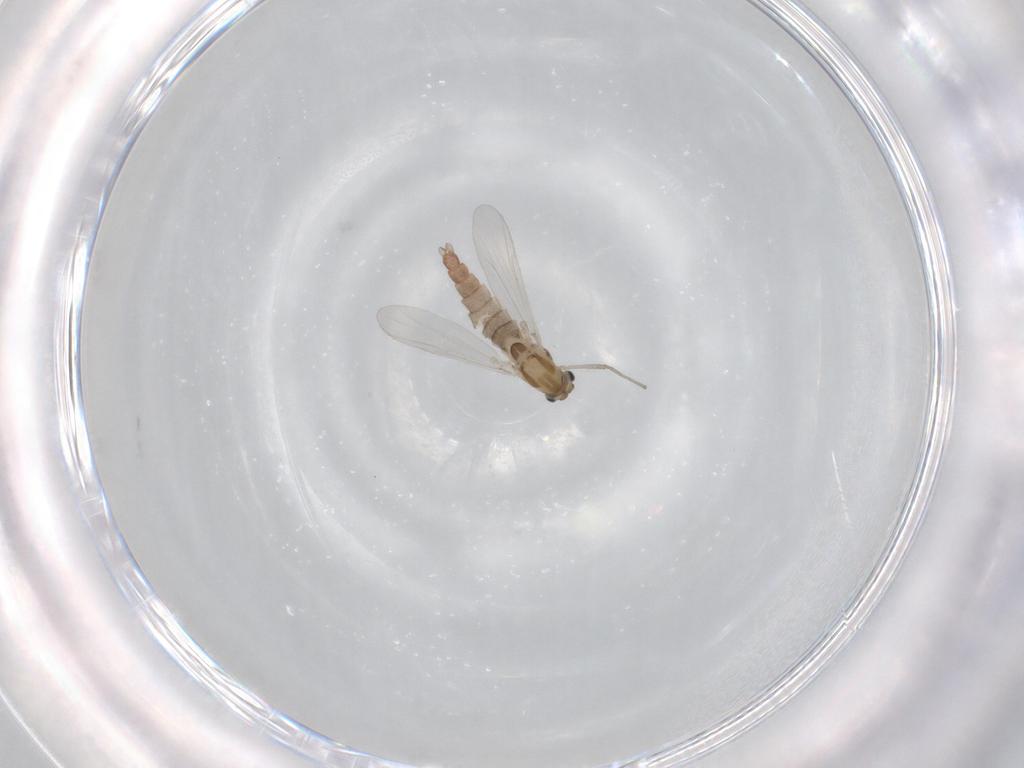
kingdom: Animalia
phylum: Arthropoda
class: Insecta
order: Diptera
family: Chironomidae
